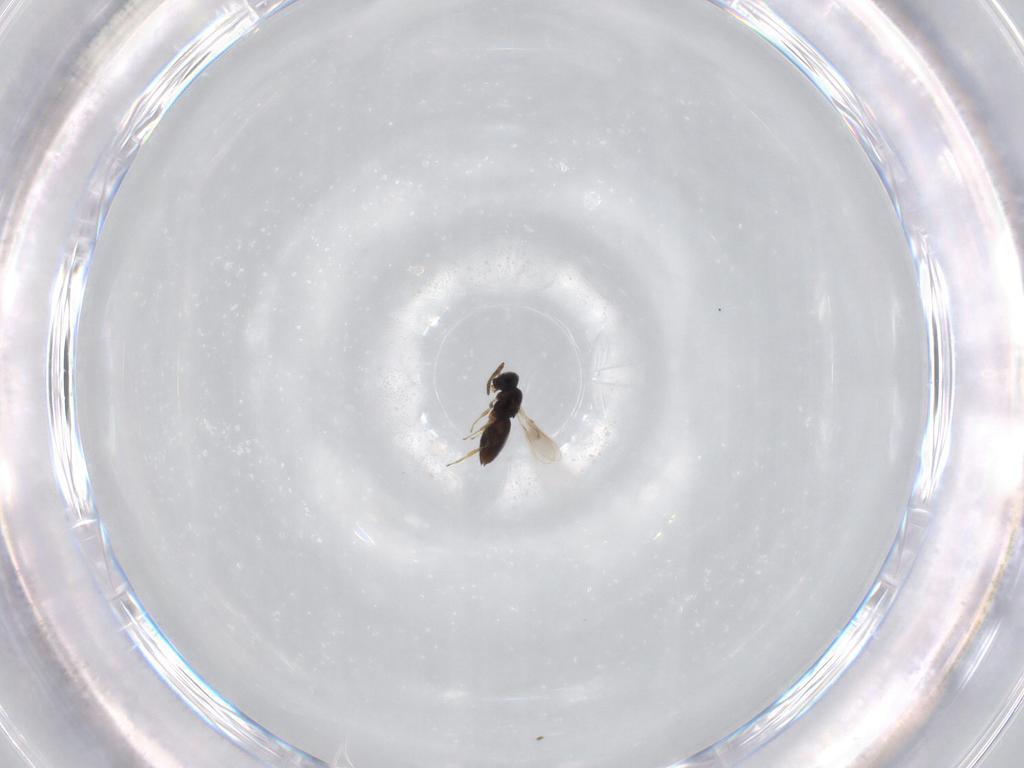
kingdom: Animalia
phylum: Arthropoda
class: Insecta
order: Hymenoptera
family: Scelionidae
